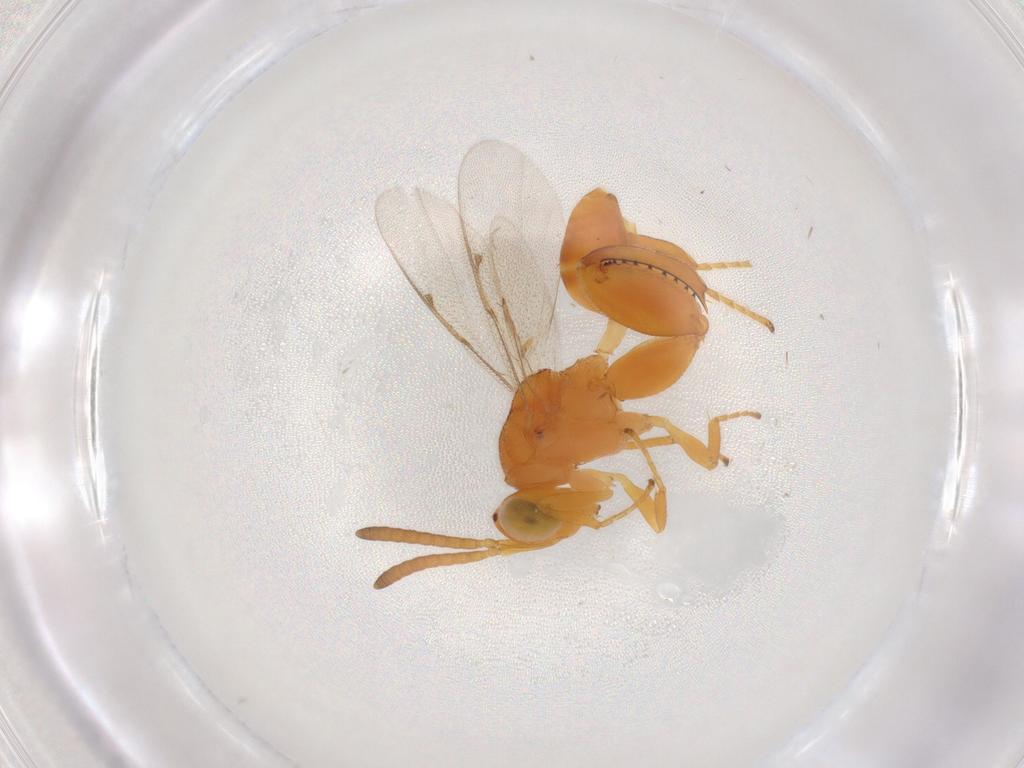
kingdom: Animalia
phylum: Arthropoda
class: Insecta
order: Hymenoptera
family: Chalcididae
